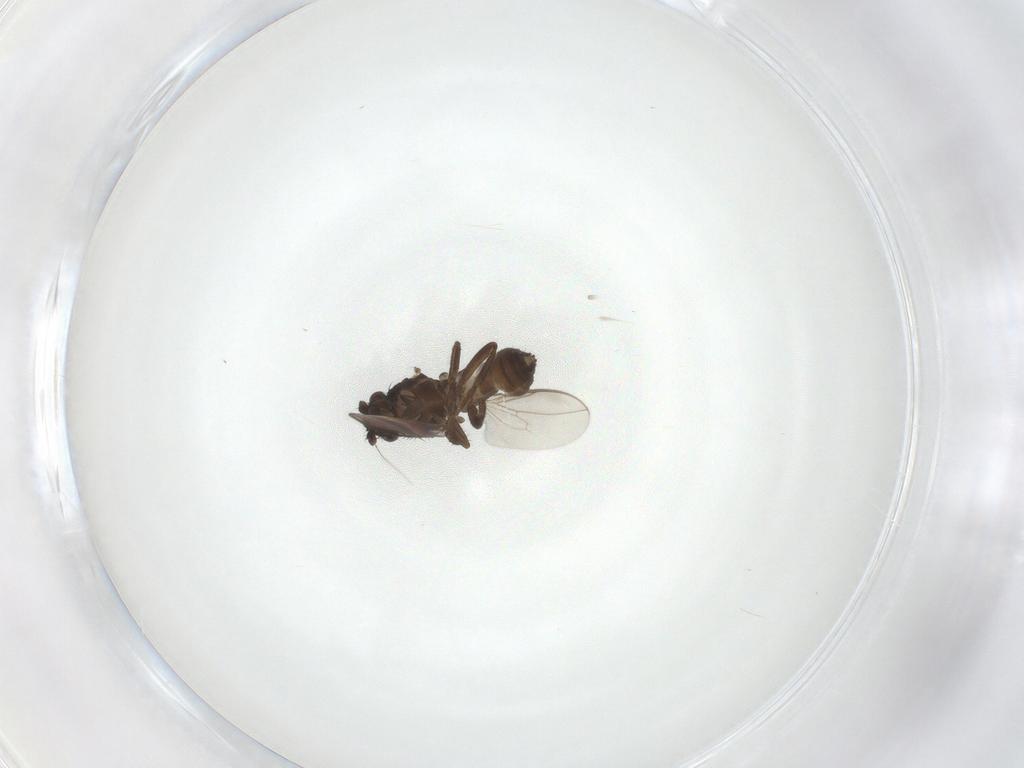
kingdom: Animalia
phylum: Arthropoda
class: Insecta
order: Diptera
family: Sphaeroceridae
